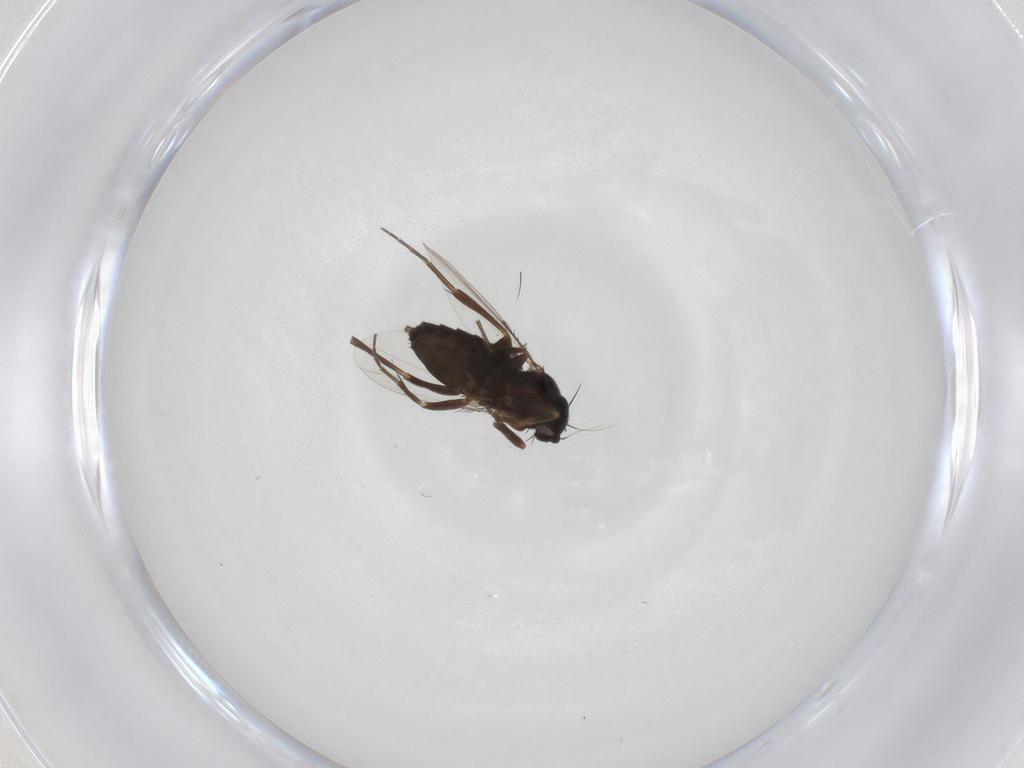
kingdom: Animalia
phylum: Arthropoda
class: Insecta
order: Diptera
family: Phoridae
